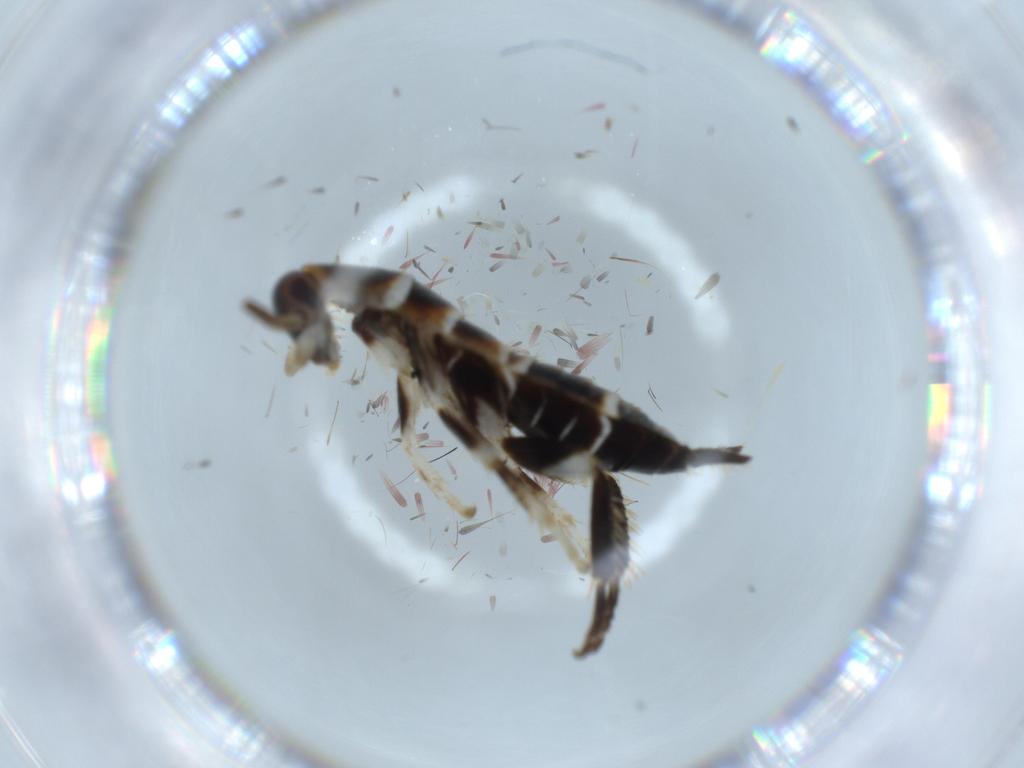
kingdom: Animalia
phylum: Arthropoda
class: Insecta
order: Blattodea
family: Ectobiidae
